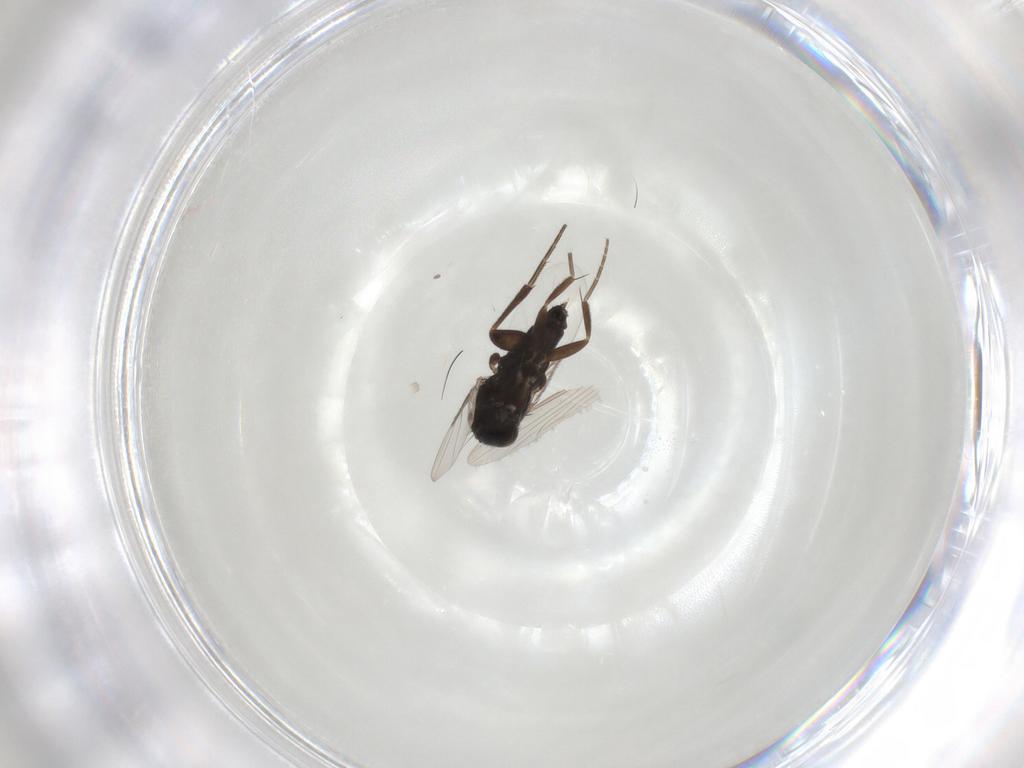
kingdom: Animalia
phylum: Arthropoda
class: Insecta
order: Diptera
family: Phoridae
